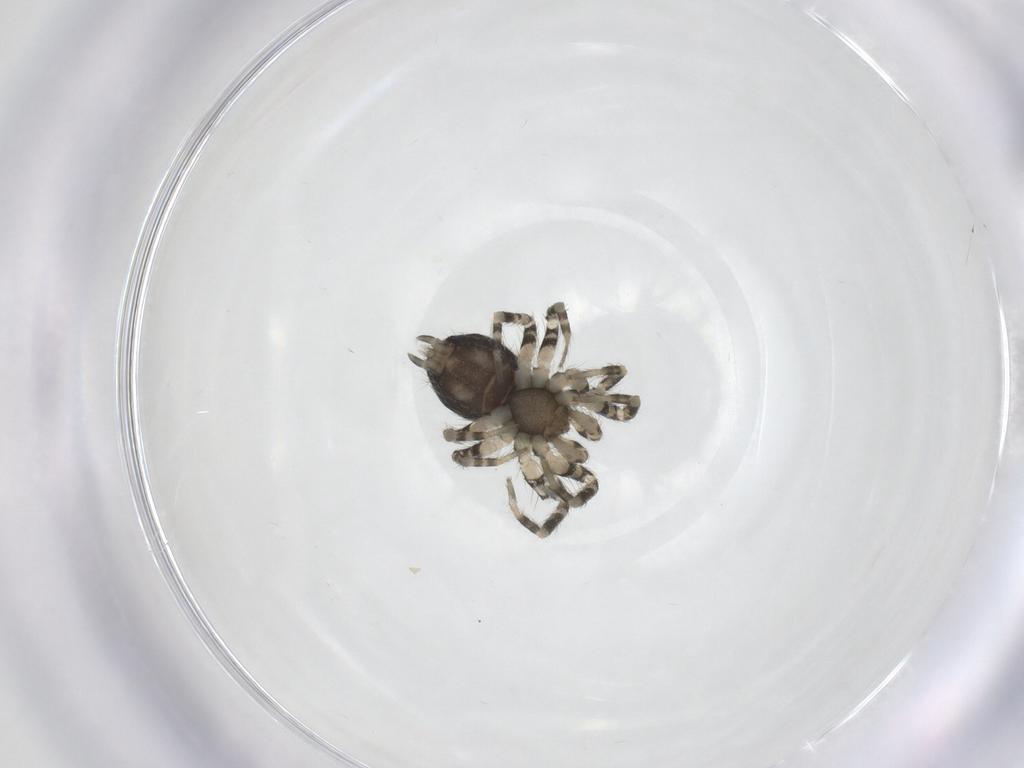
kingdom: Animalia
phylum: Arthropoda
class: Arachnida
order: Araneae
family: Oecobiidae
